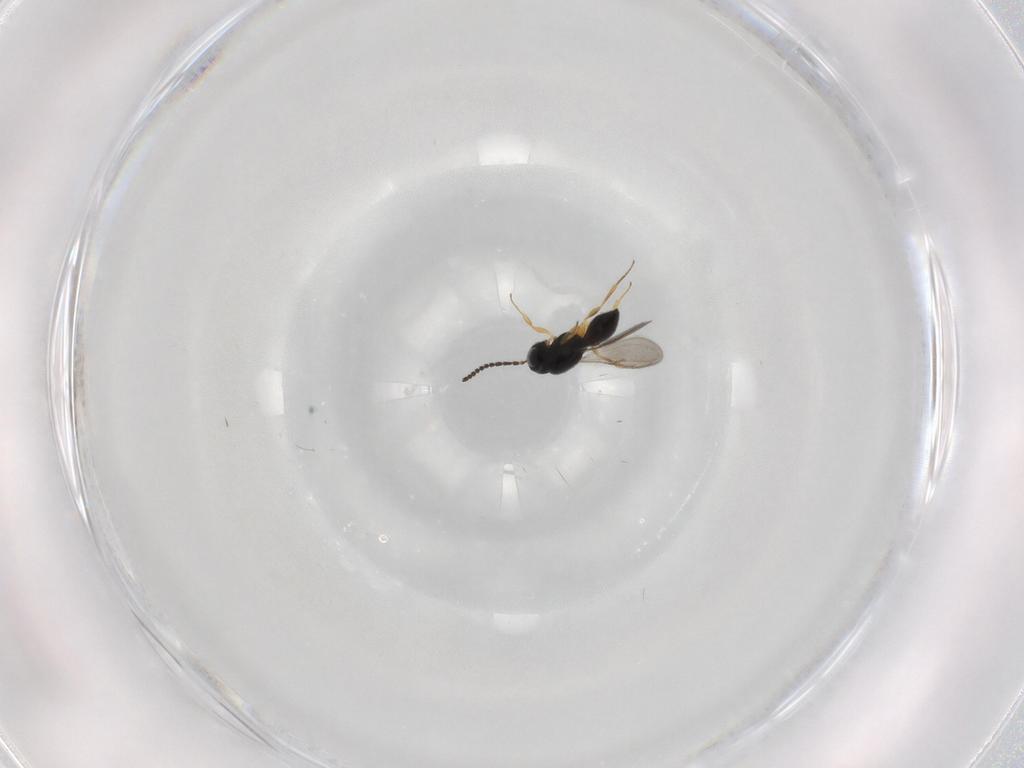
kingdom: Animalia
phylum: Arthropoda
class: Insecta
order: Hymenoptera
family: Scelionidae
